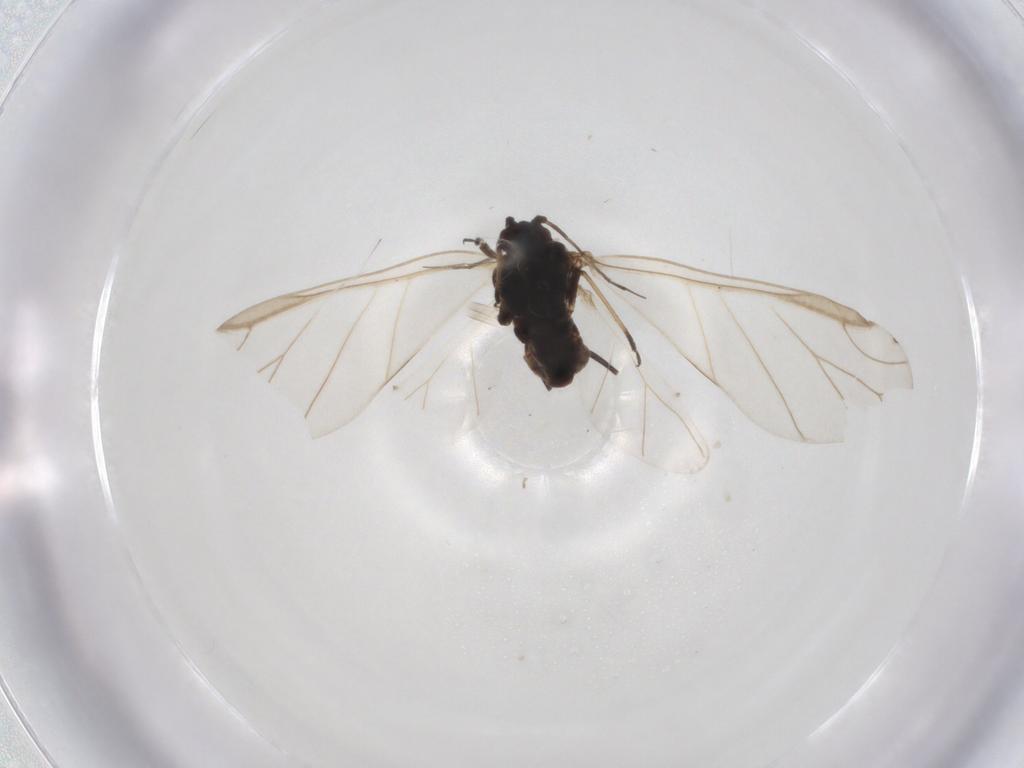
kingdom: Animalia
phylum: Arthropoda
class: Insecta
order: Hemiptera
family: Aphididae
